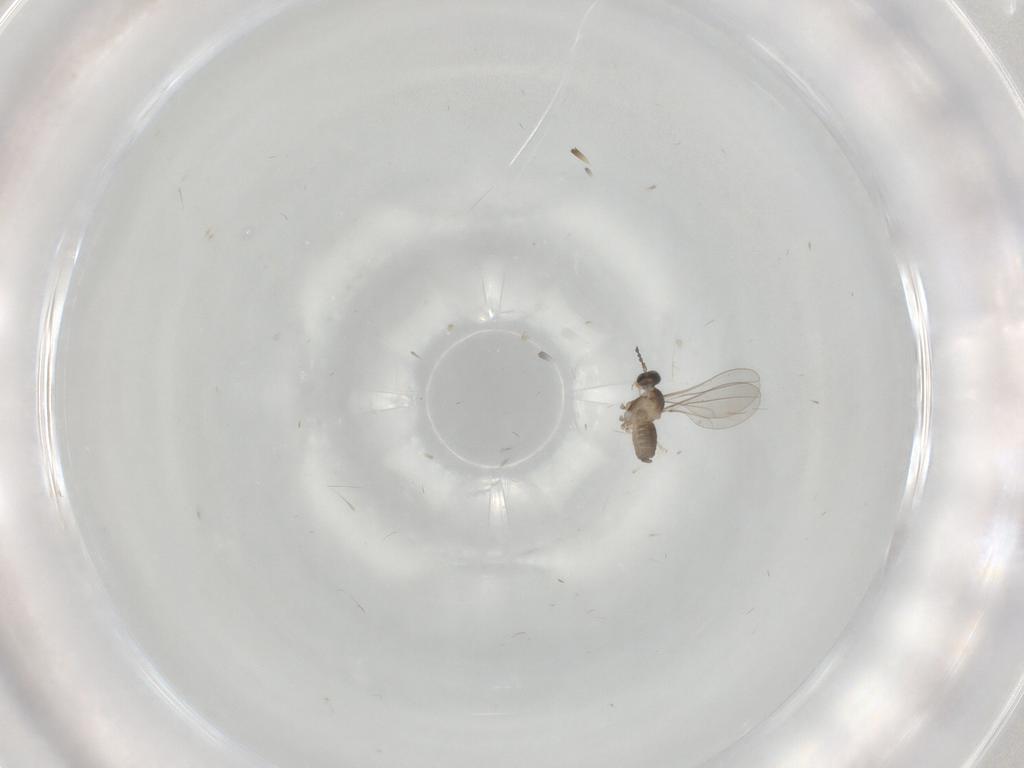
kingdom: Animalia
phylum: Arthropoda
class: Insecta
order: Diptera
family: Cecidomyiidae
